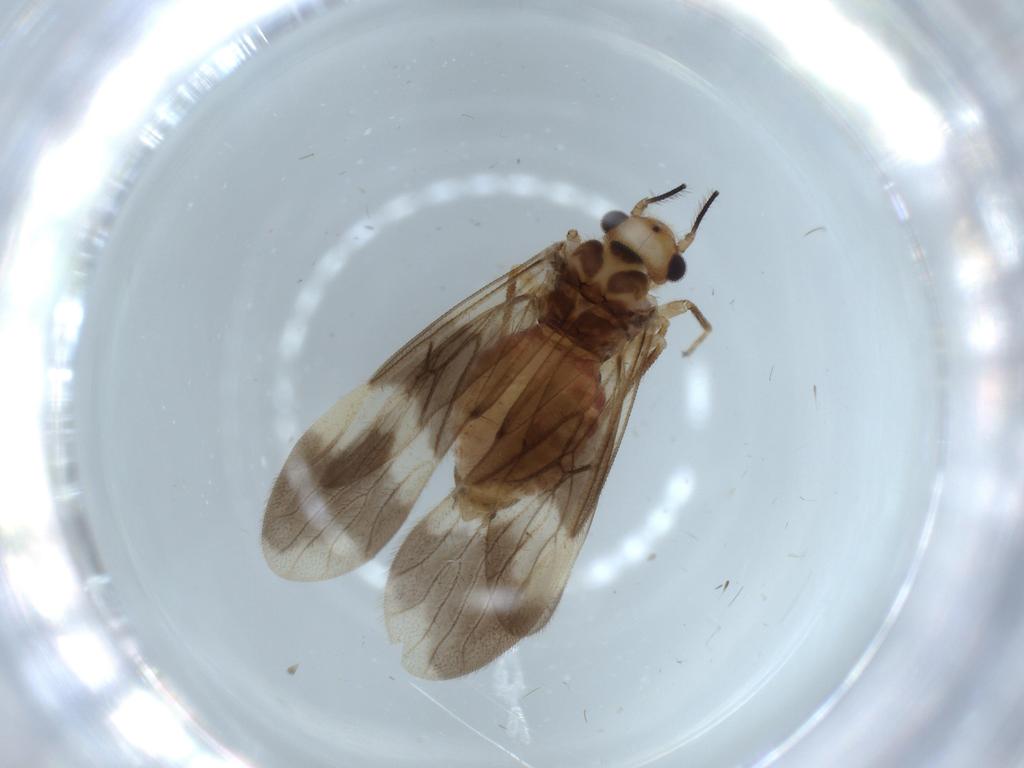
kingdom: Animalia
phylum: Arthropoda
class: Insecta
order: Psocodea
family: Amphipsocidae
